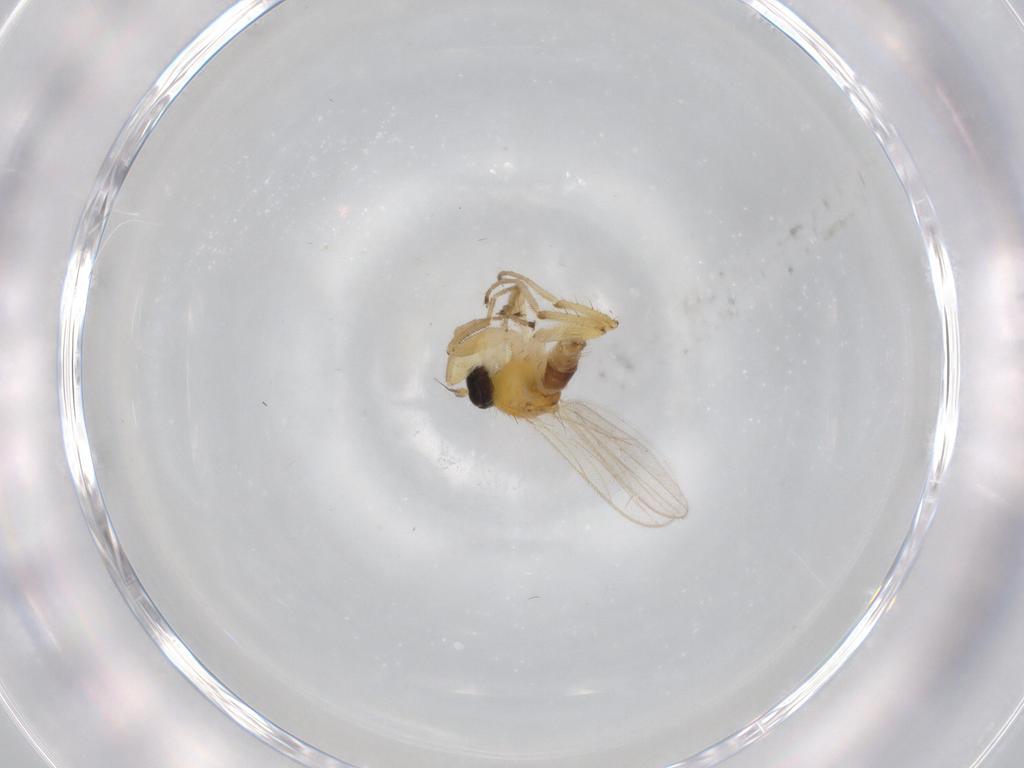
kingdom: Animalia
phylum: Arthropoda
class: Insecta
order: Diptera
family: Hybotidae
